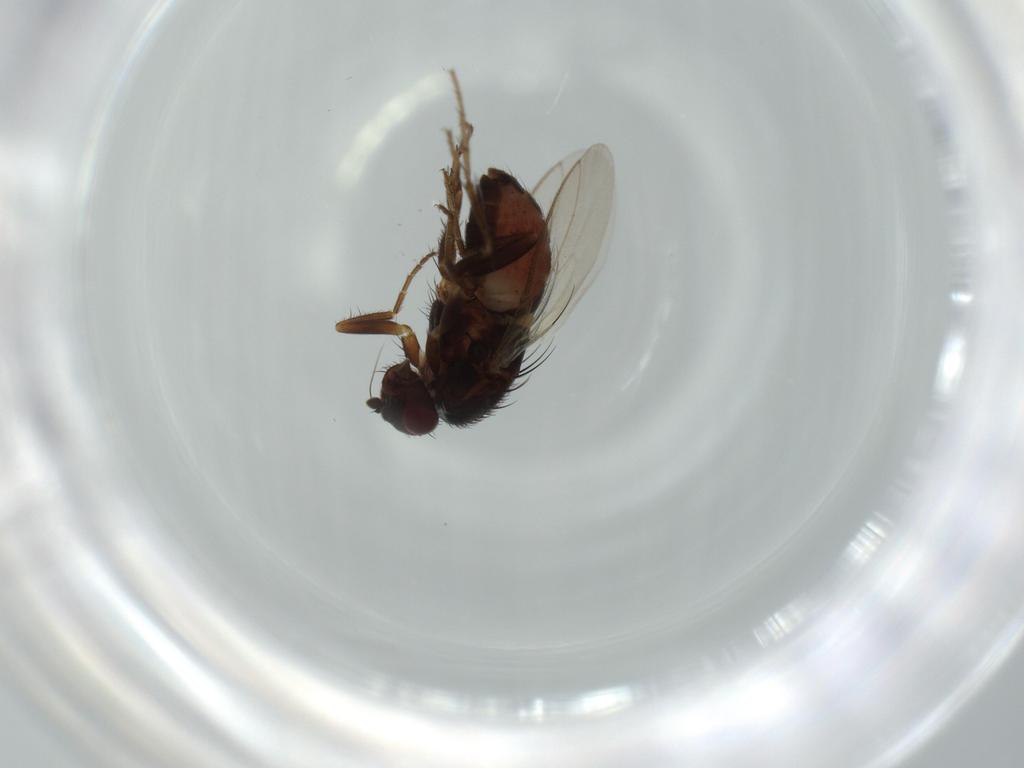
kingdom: Animalia
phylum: Arthropoda
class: Insecta
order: Diptera
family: Sphaeroceridae
